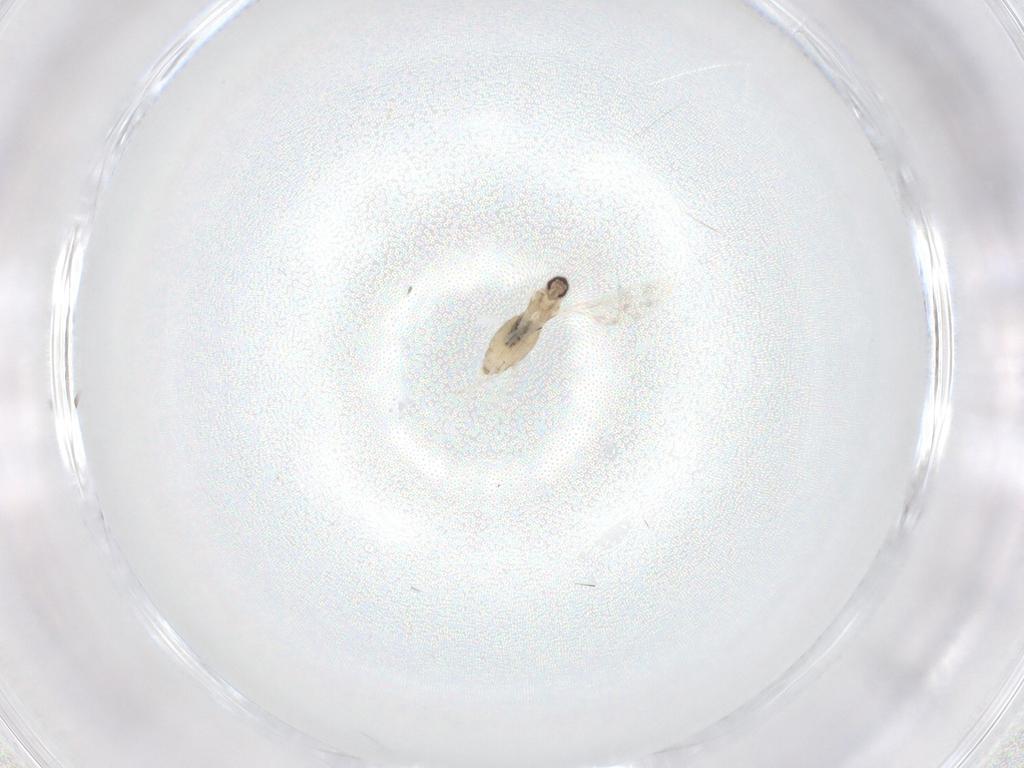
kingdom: Animalia
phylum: Arthropoda
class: Insecta
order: Diptera
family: Cecidomyiidae
